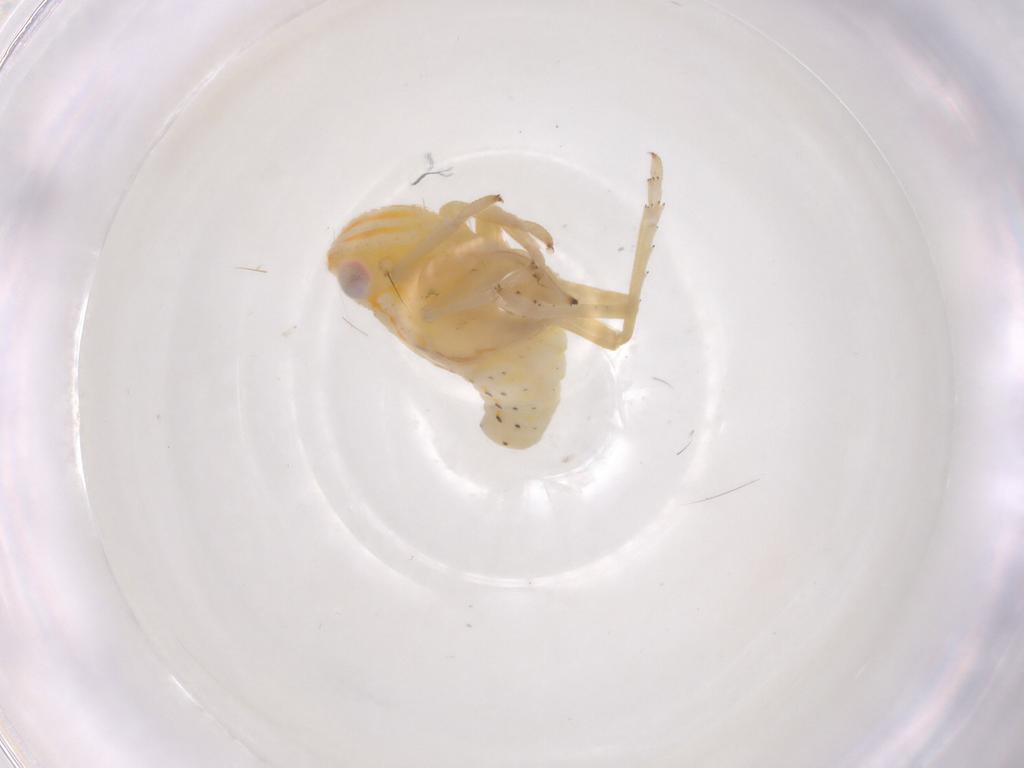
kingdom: Animalia
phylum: Arthropoda
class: Insecta
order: Hemiptera
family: Tropiduchidae
